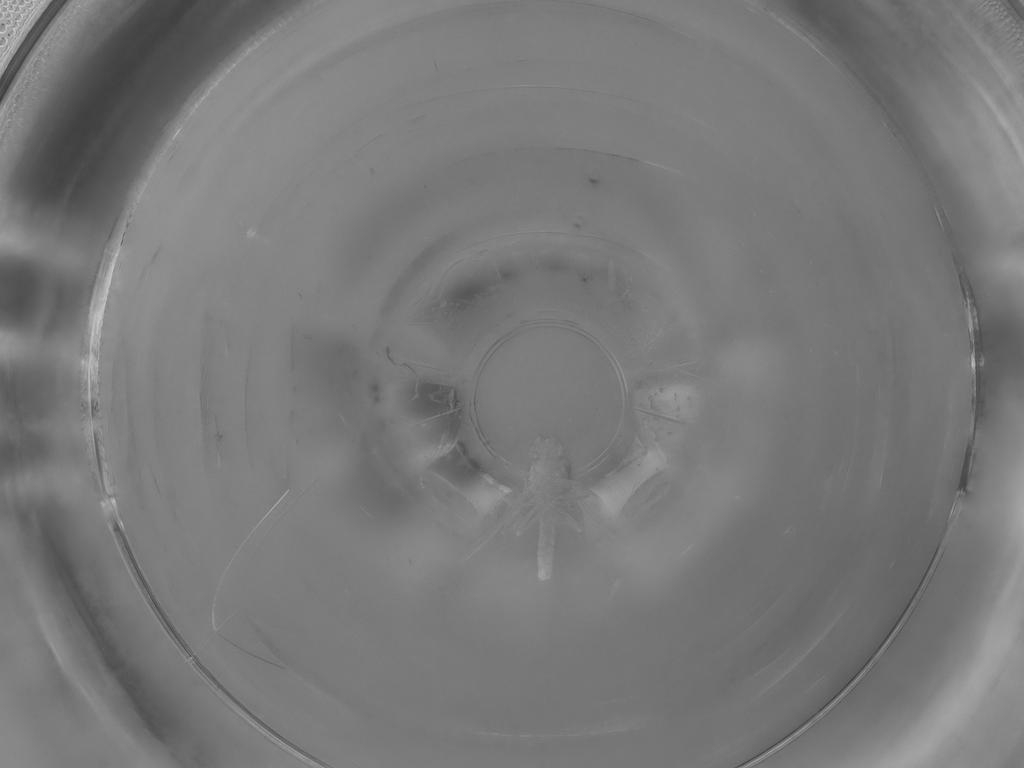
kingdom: Animalia
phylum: Arthropoda
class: Insecta
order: Diptera
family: Ceratopogonidae
